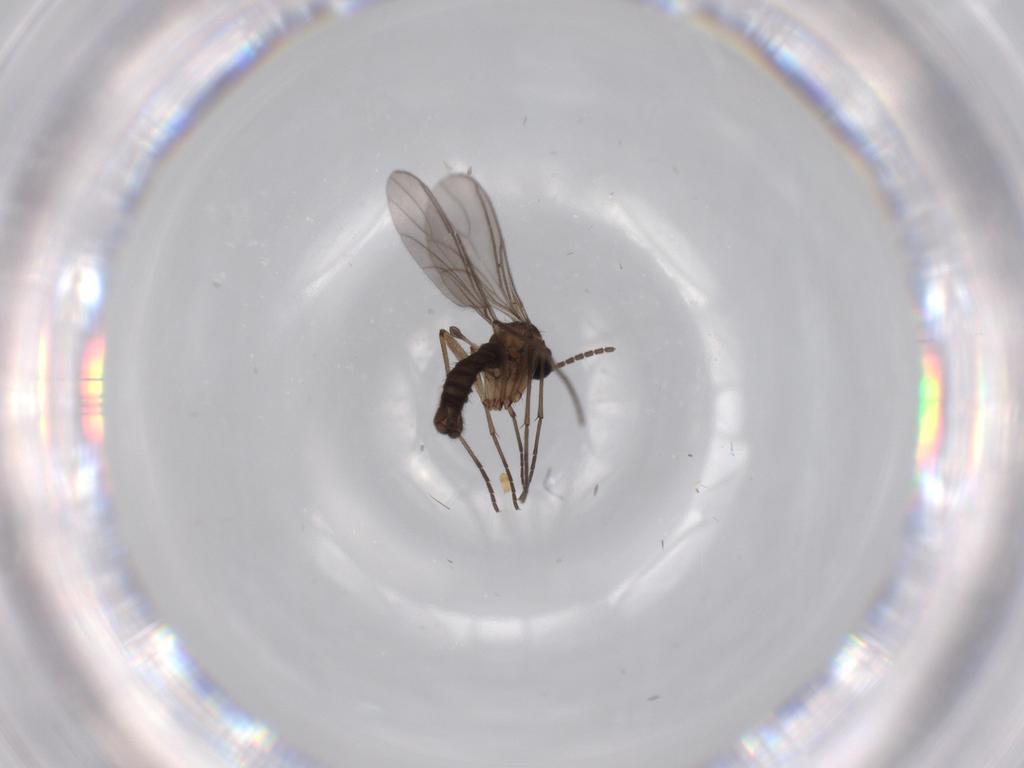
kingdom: Animalia
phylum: Arthropoda
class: Insecta
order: Diptera
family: Sciaridae
